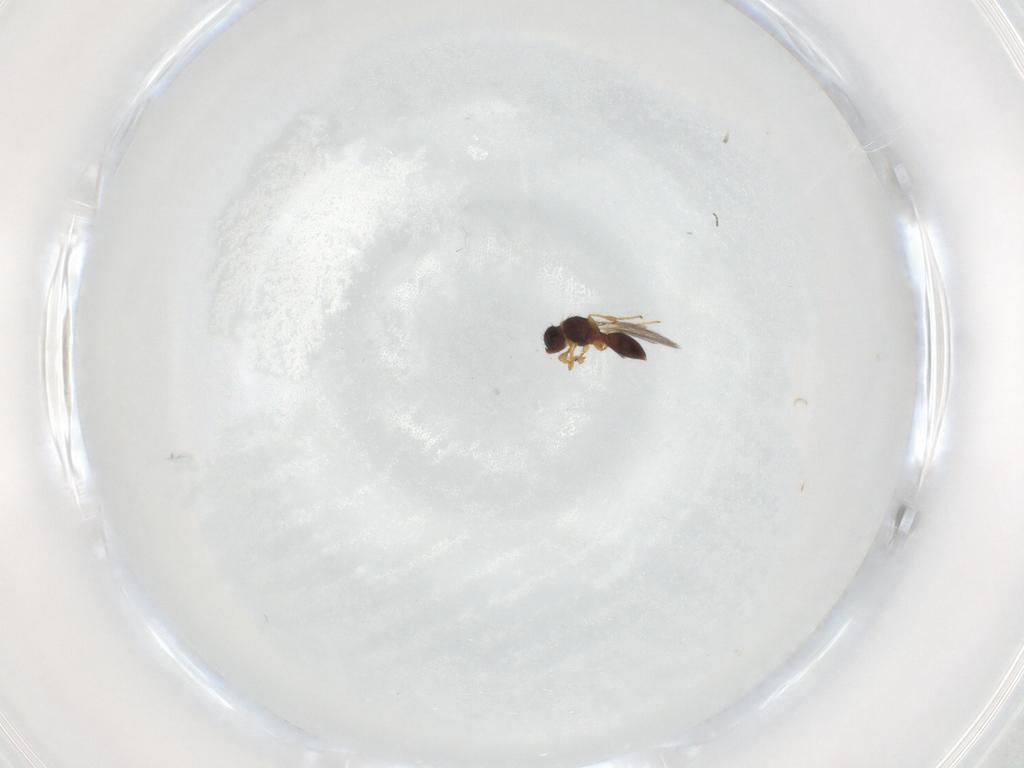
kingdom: Animalia
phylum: Arthropoda
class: Insecta
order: Hymenoptera
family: Diapriidae
